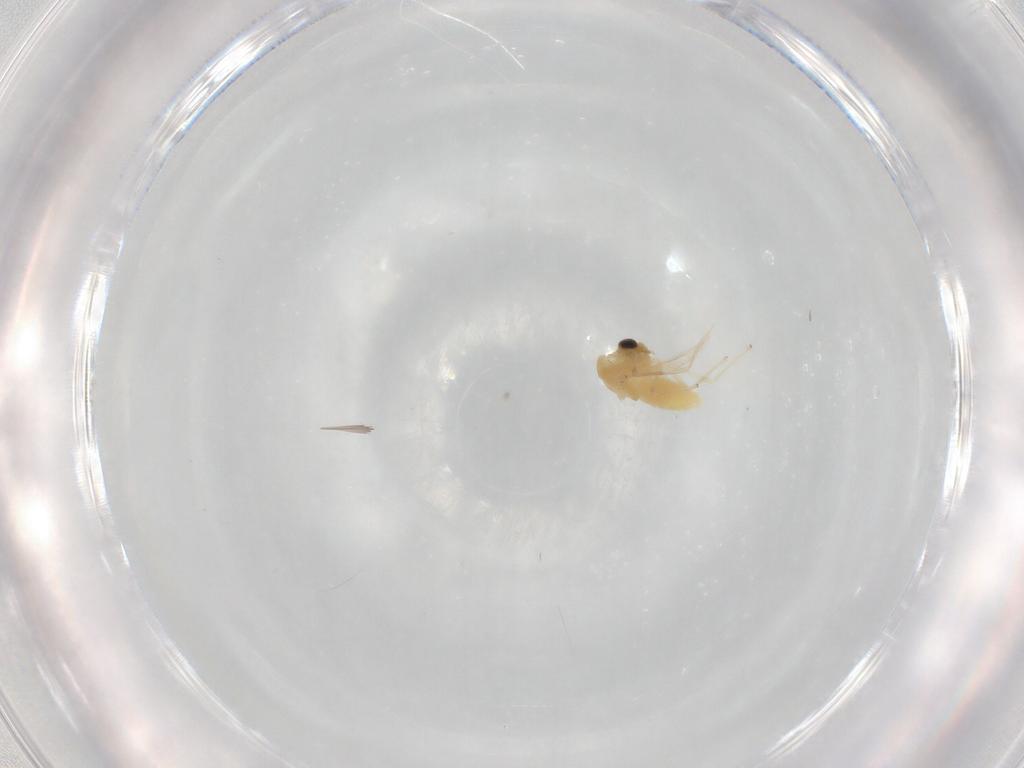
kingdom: Animalia
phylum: Arthropoda
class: Insecta
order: Diptera
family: Chironomidae
